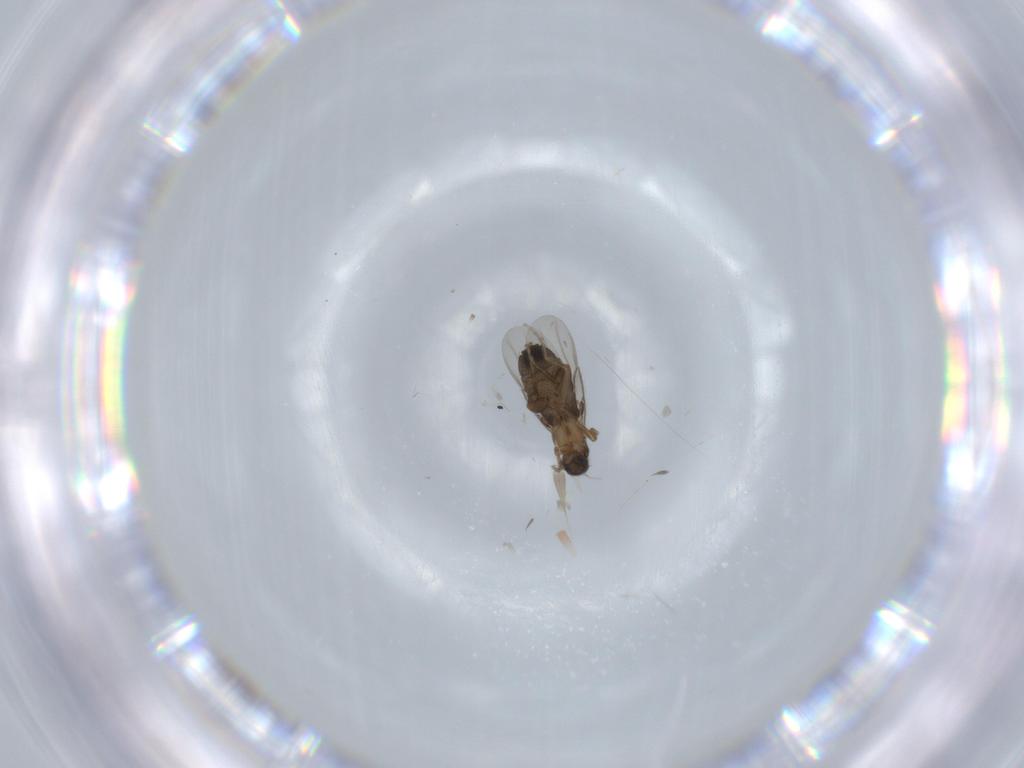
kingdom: Animalia
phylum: Arthropoda
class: Insecta
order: Diptera
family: Phoridae
